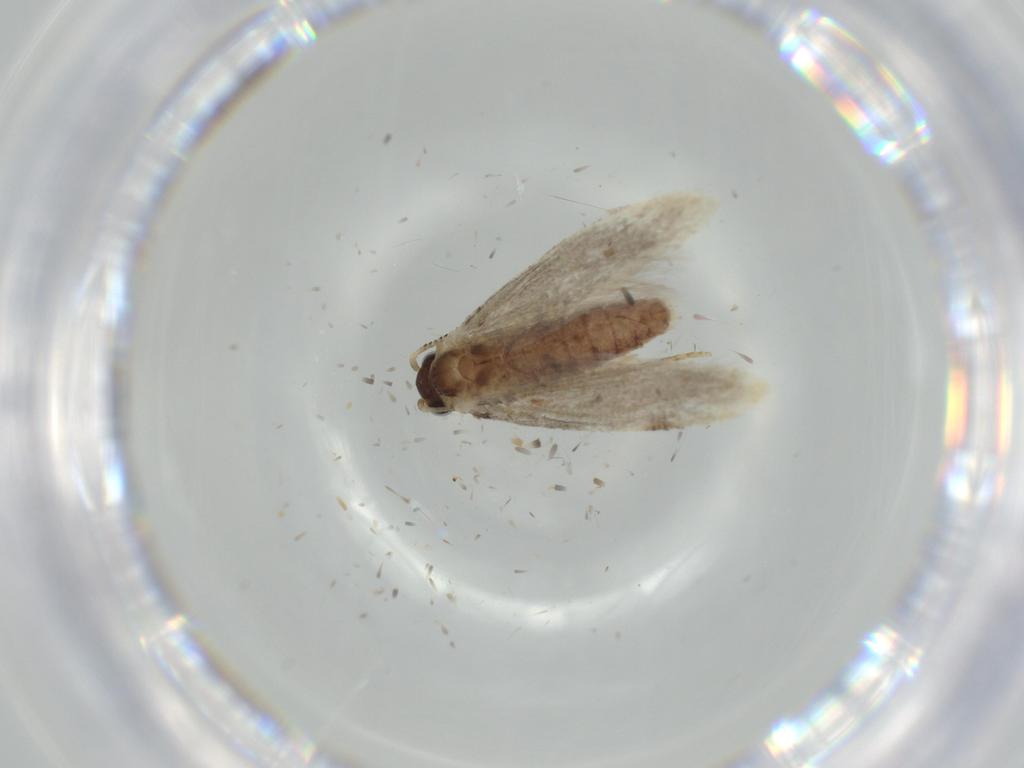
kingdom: Animalia
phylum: Arthropoda
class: Insecta
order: Lepidoptera
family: Tortricidae
